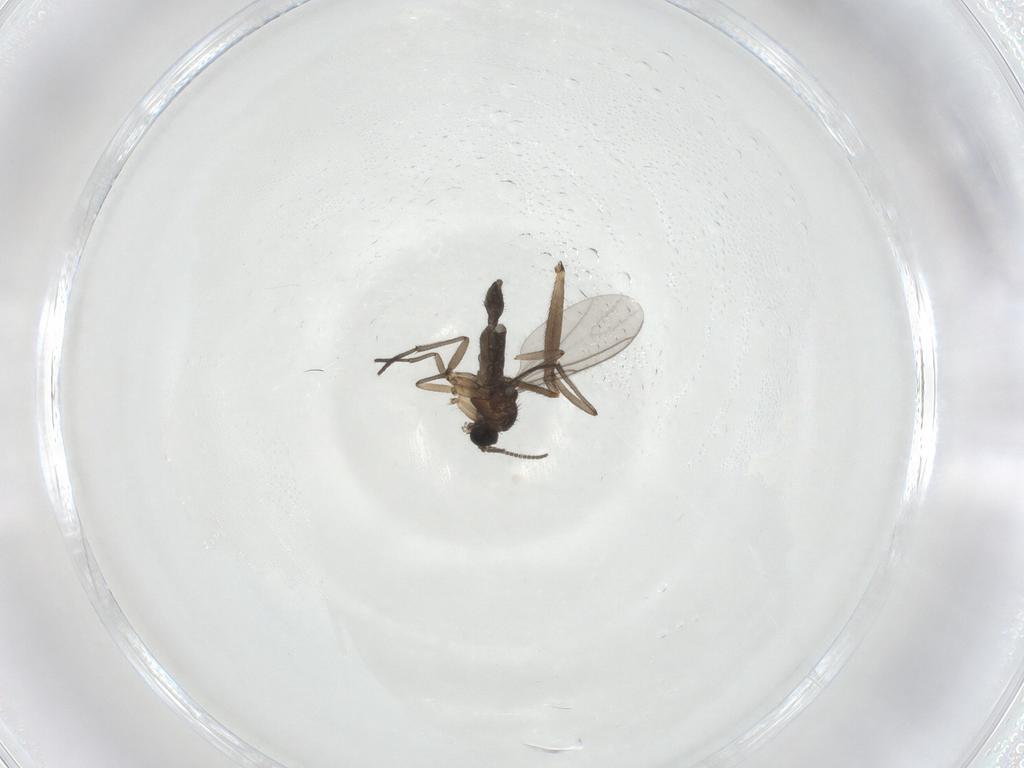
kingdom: Animalia
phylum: Arthropoda
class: Insecta
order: Diptera
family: Sciaridae
